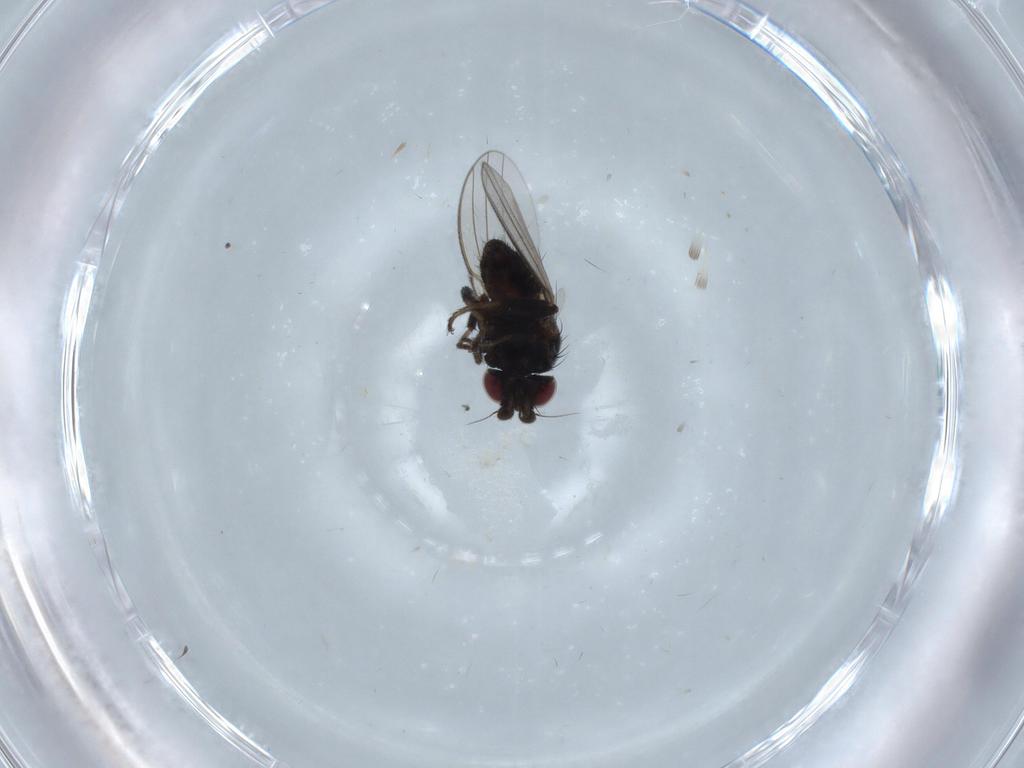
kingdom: Animalia
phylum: Arthropoda
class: Insecta
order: Diptera
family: Milichiidae
